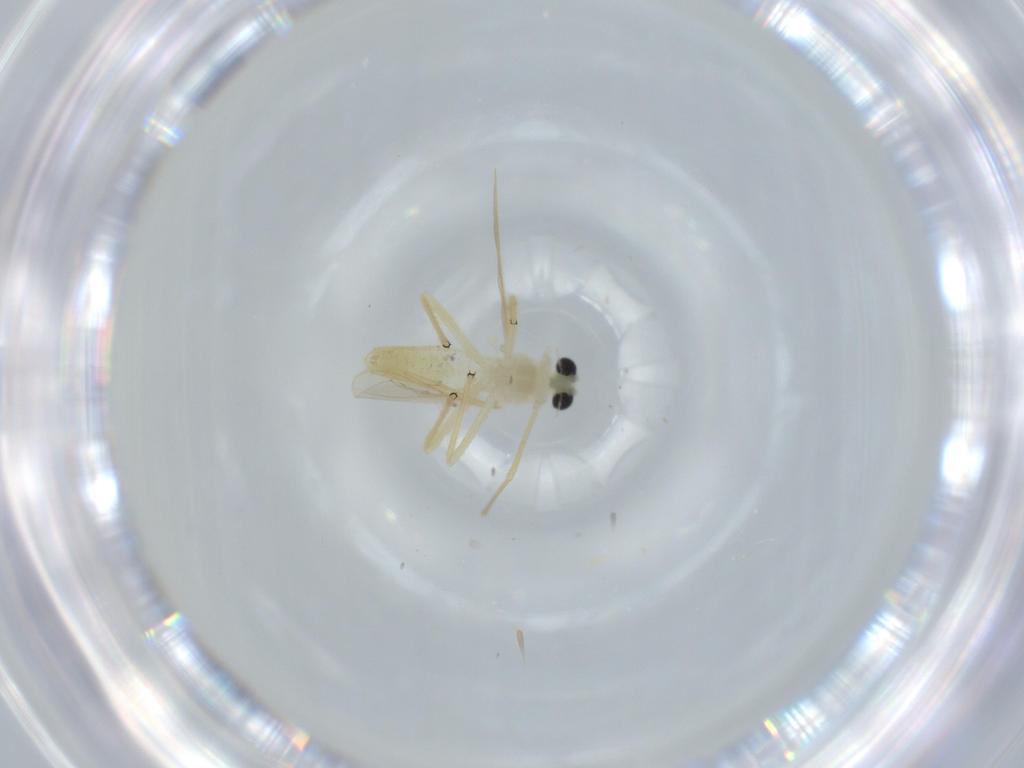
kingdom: Animalia
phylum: Arthropoda
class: Insecta
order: Diptera
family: Chironomidae
